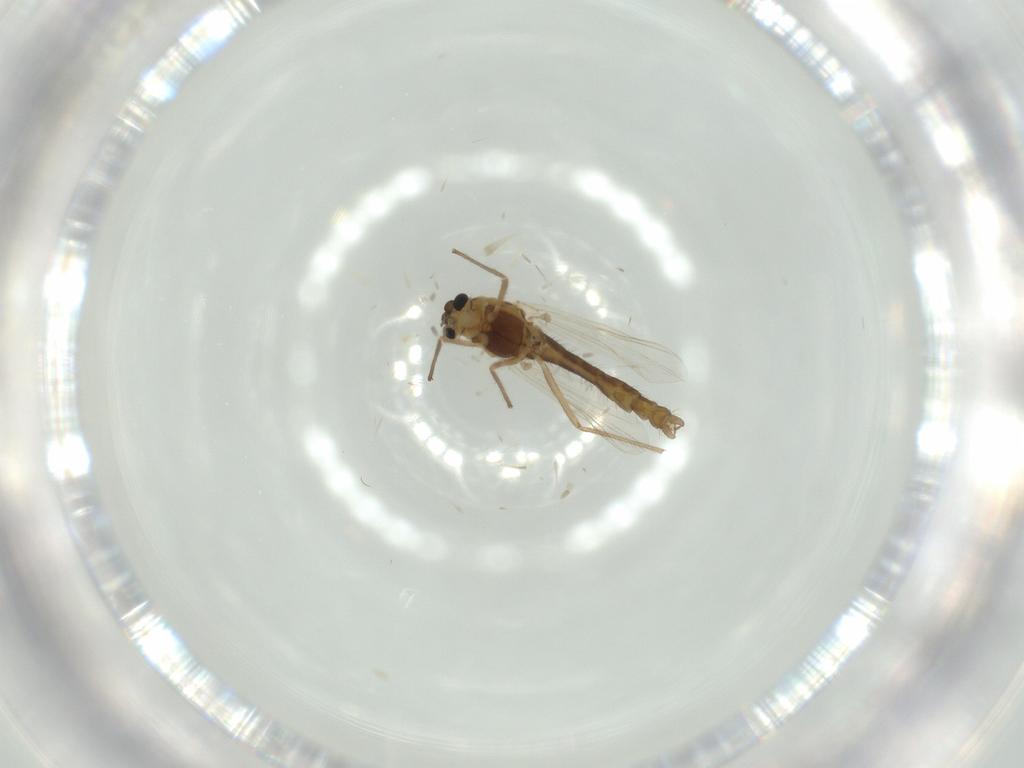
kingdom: Animalia
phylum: Arthropoda
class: Insecta
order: Diptera
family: Chironomidae
